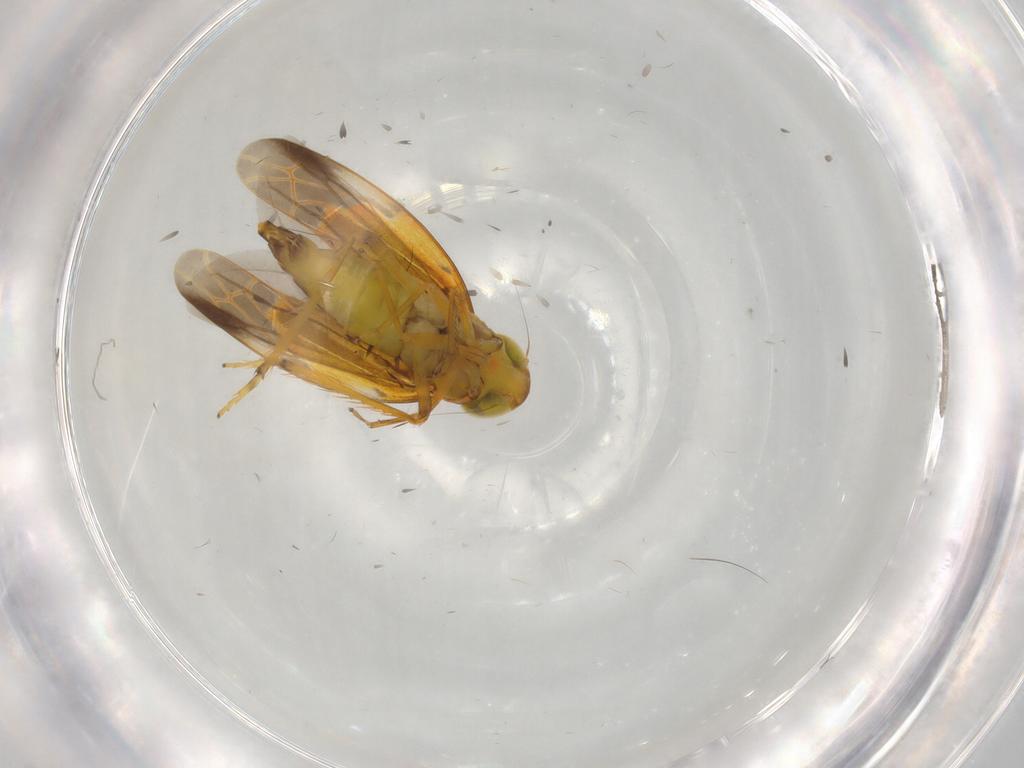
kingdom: Animalia
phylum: Arthropoda
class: Insecta
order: Hemiptera
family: Cicadellidae
